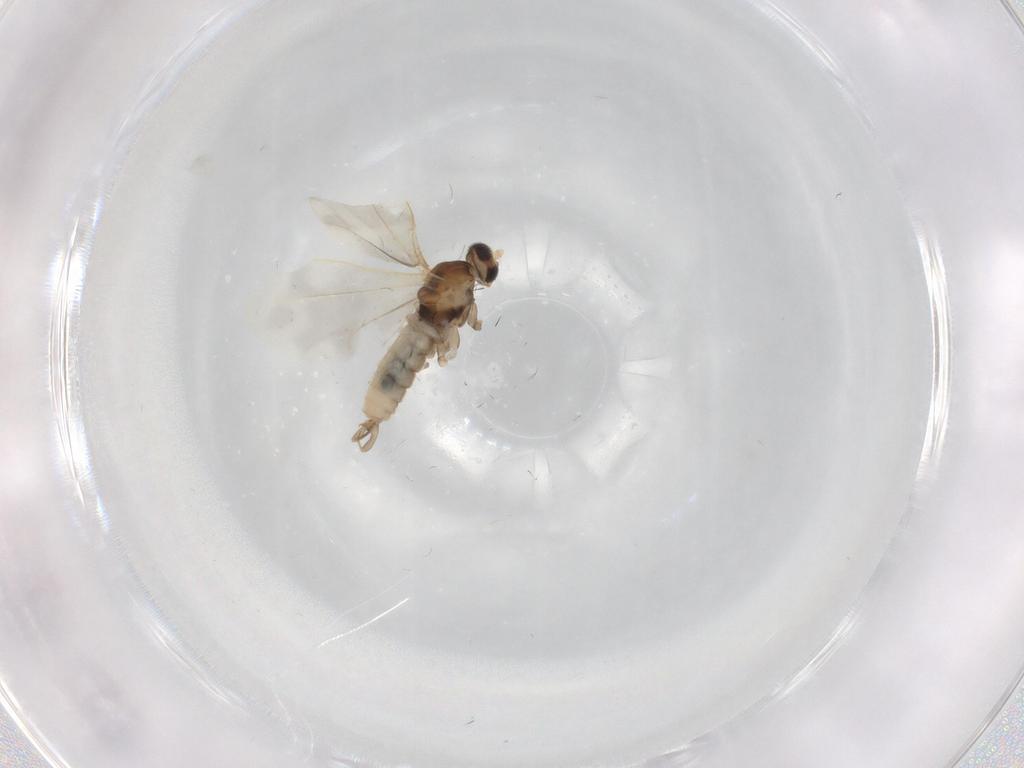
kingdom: Animalia
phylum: Arthropoda
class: Insecta
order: Diptera
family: Cecidomyiidae
